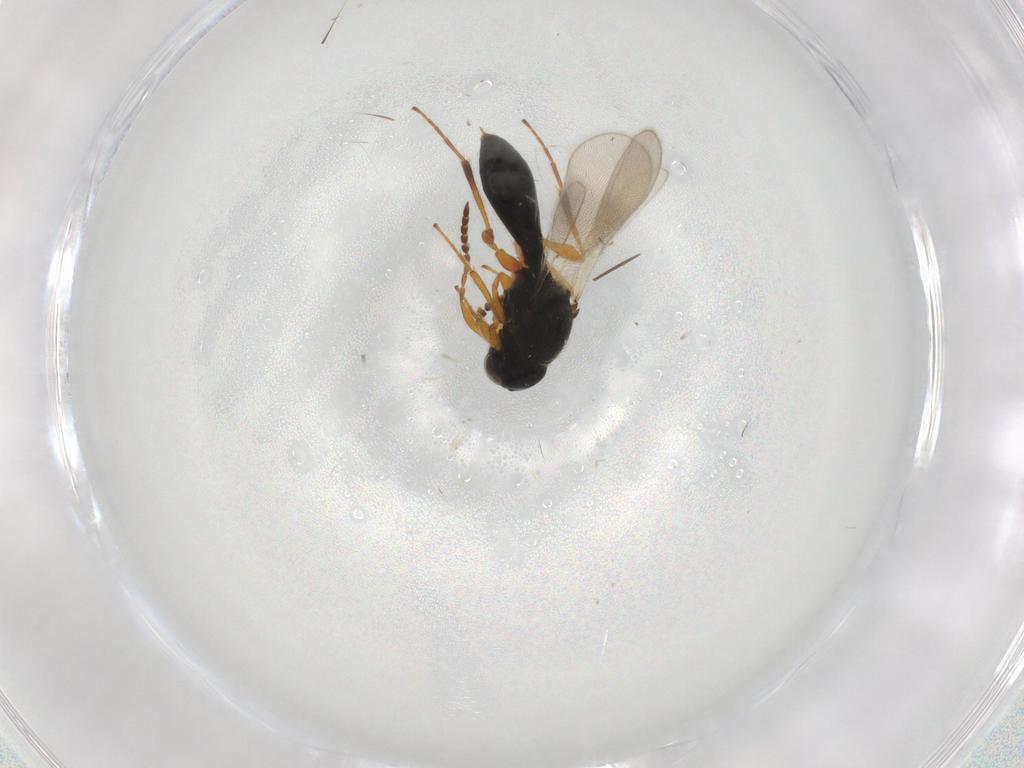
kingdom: Animalia
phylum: Arthropoda
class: Insecta
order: Hymenoptera
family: Platygastridae
